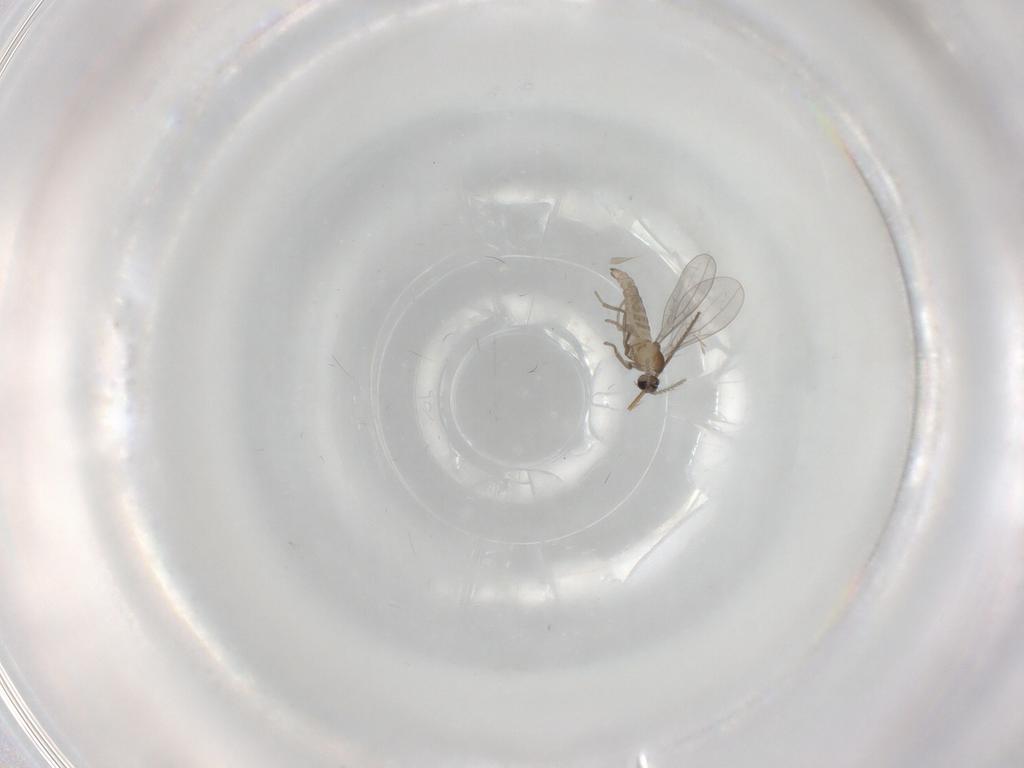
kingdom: Animalia
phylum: Arthropoda
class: Insecta
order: Diptera
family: Cecidomyiidae
